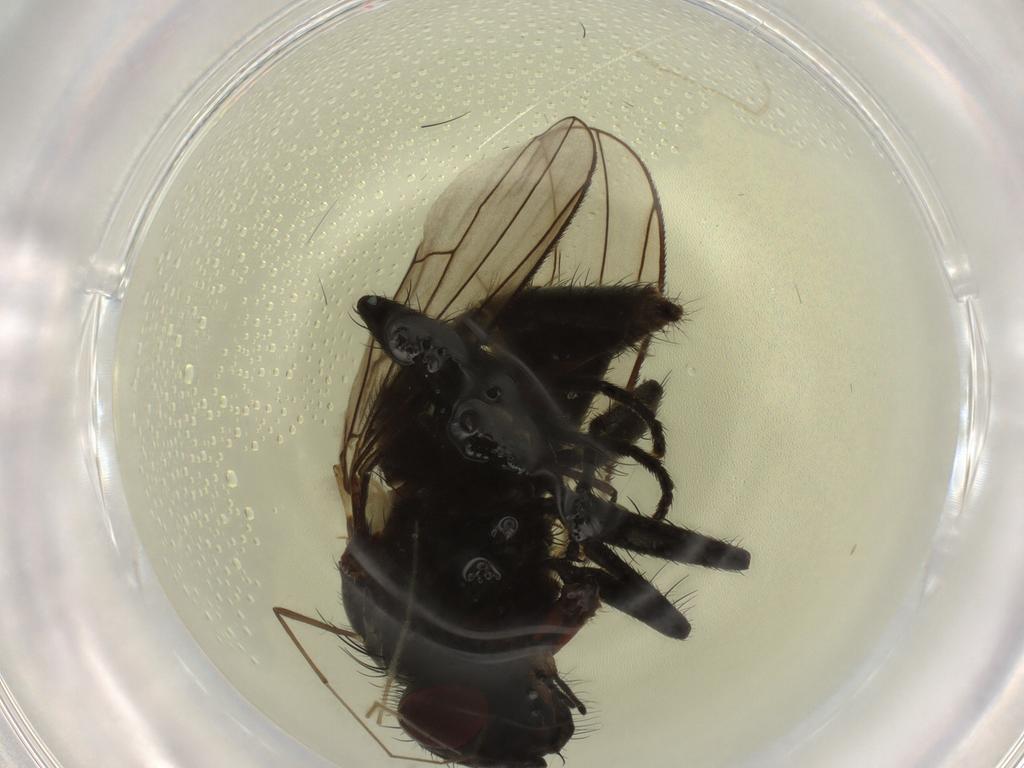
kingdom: Animalia
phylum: Arthropoda
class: Insecta
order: Diptera
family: Muscidae
